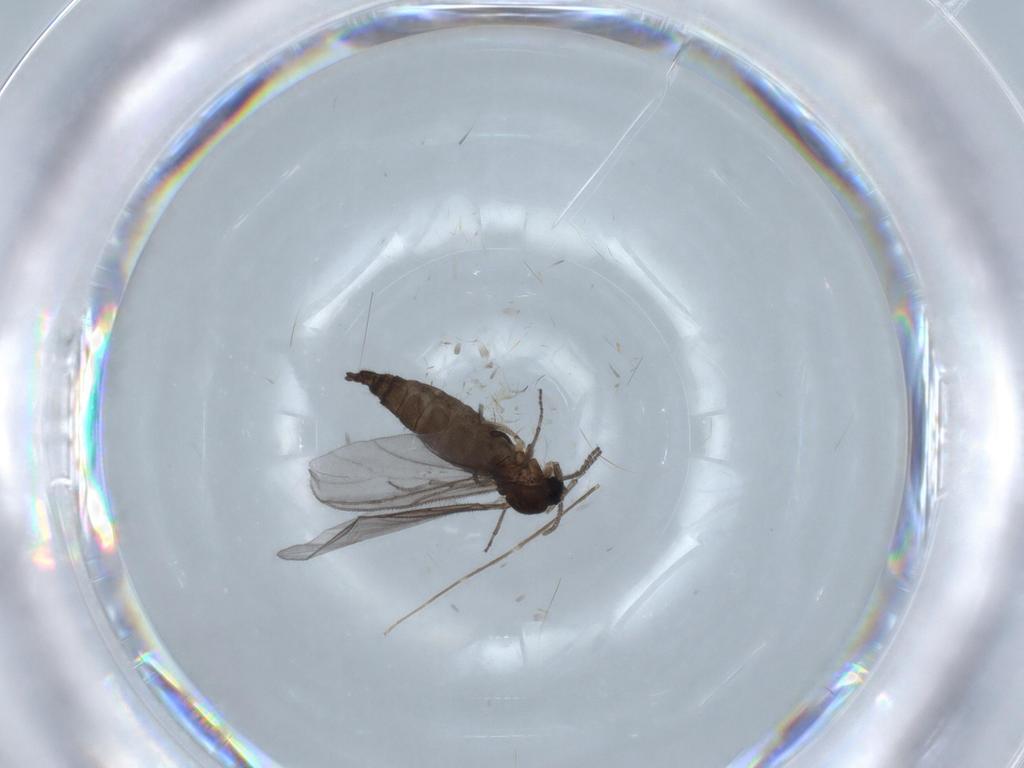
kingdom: Animalia
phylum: Arthropoda
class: Insecta
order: Diptera
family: Chironomidae
